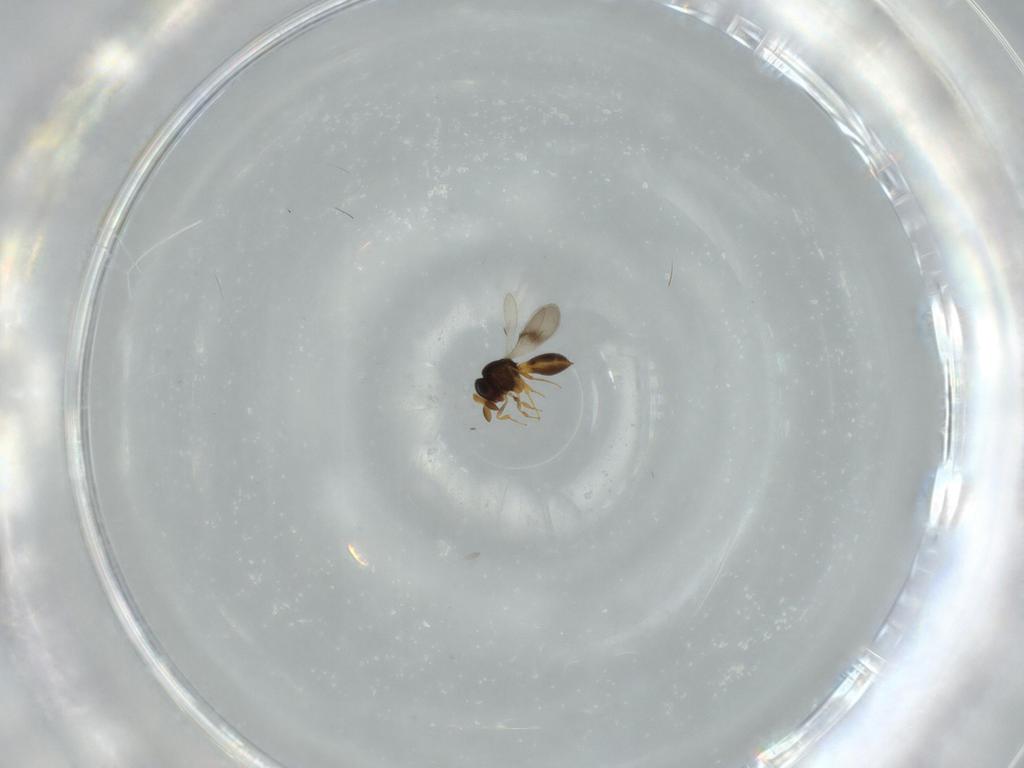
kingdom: Animalia
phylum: Arthropoda
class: Insecta
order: Hymenoptera
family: Scelionidae
